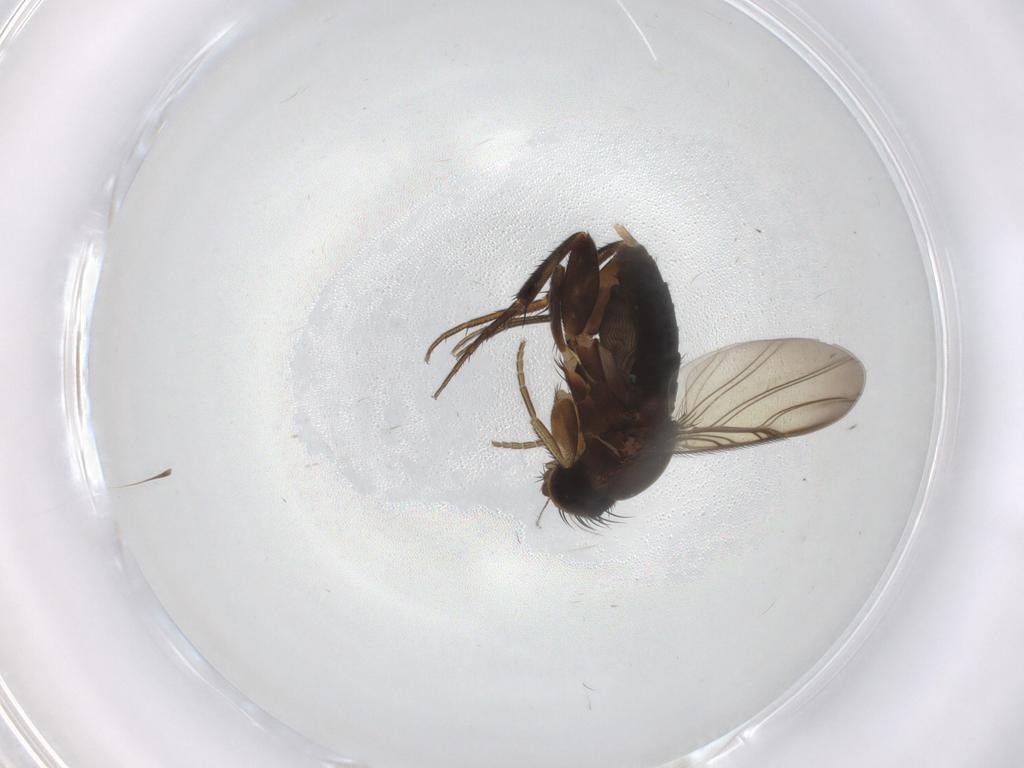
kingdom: Animalia
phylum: Arthropoda
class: Insecta
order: Diptera
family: Phoridae
